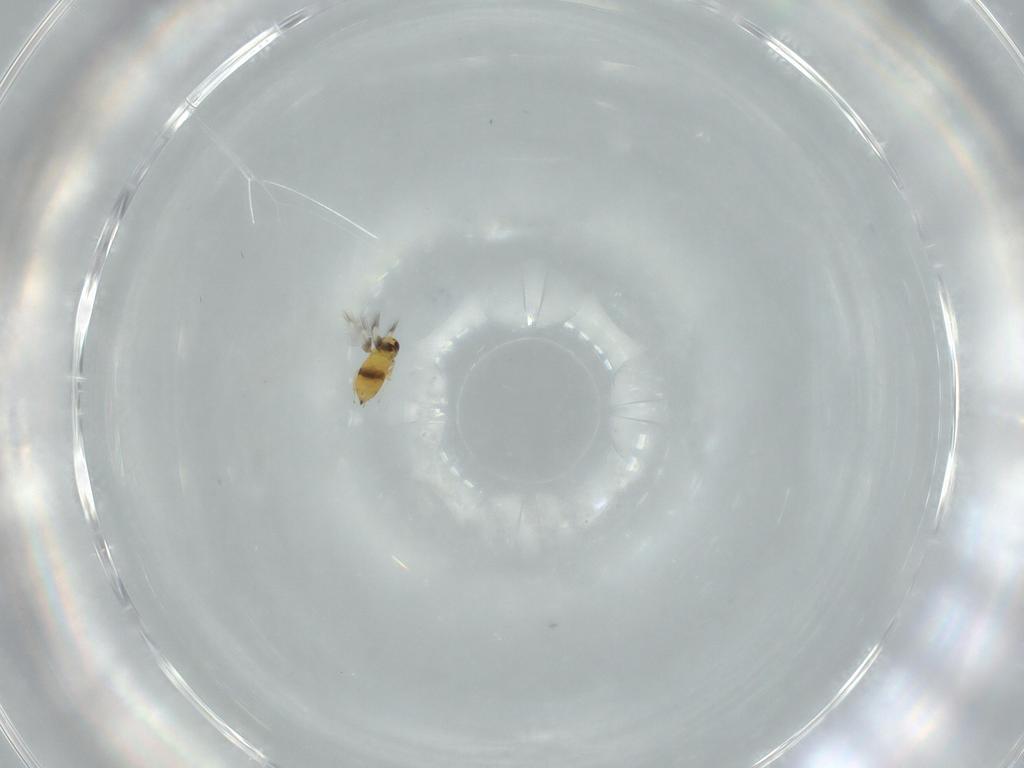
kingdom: Animalia
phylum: Arthropoda
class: Insecta
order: Hymenoptera
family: Signiphoridae
